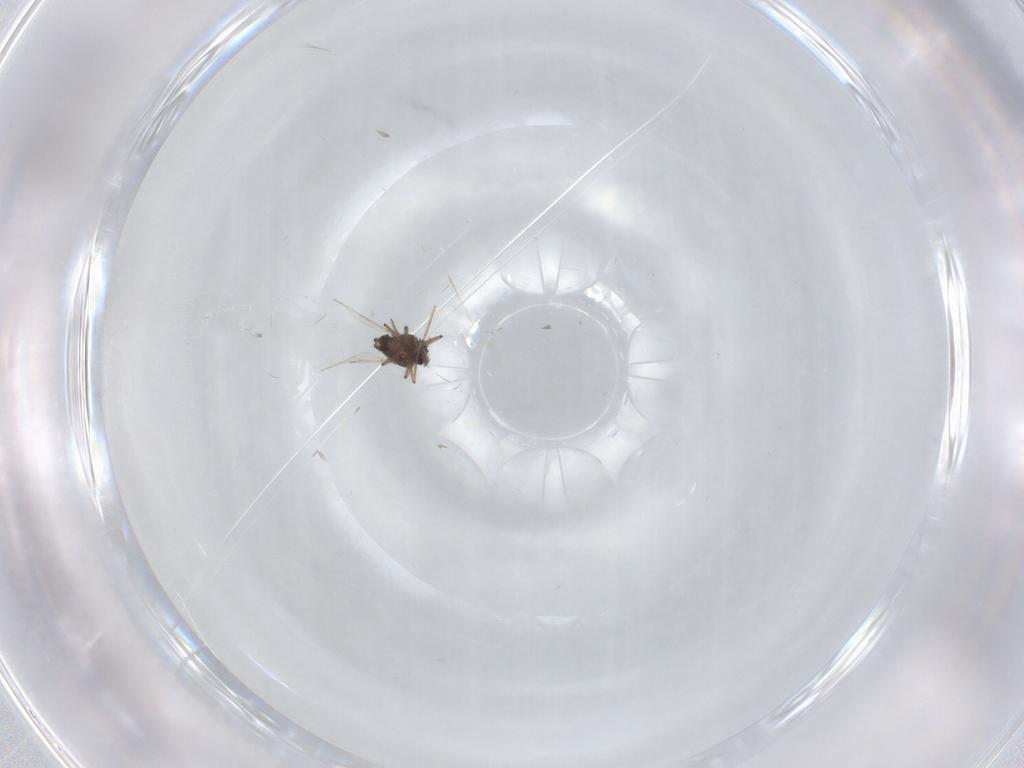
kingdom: Animalia
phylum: Arthropoda
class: Insecta
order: Diptera
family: Ceratopogonidae
